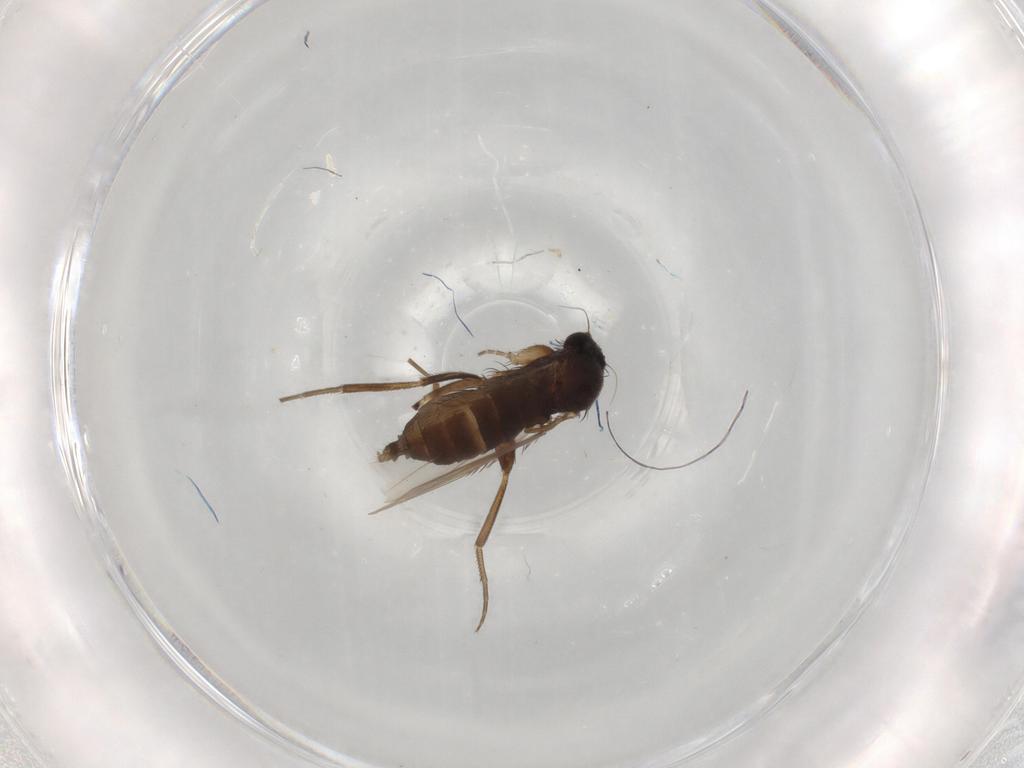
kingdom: Animalia
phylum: Arthropoda
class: Insecta
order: Diptera
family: Phoridae
